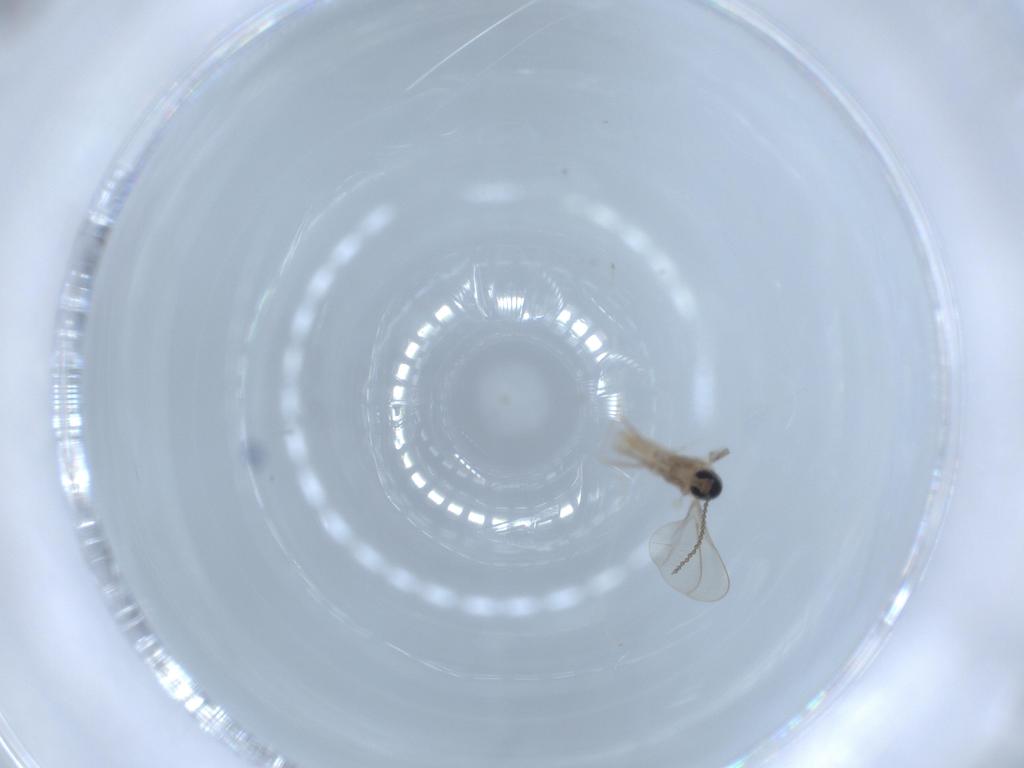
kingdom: Animalia
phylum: Arthropoda
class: Insecta
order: Diptera
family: Cecidomyiidae
